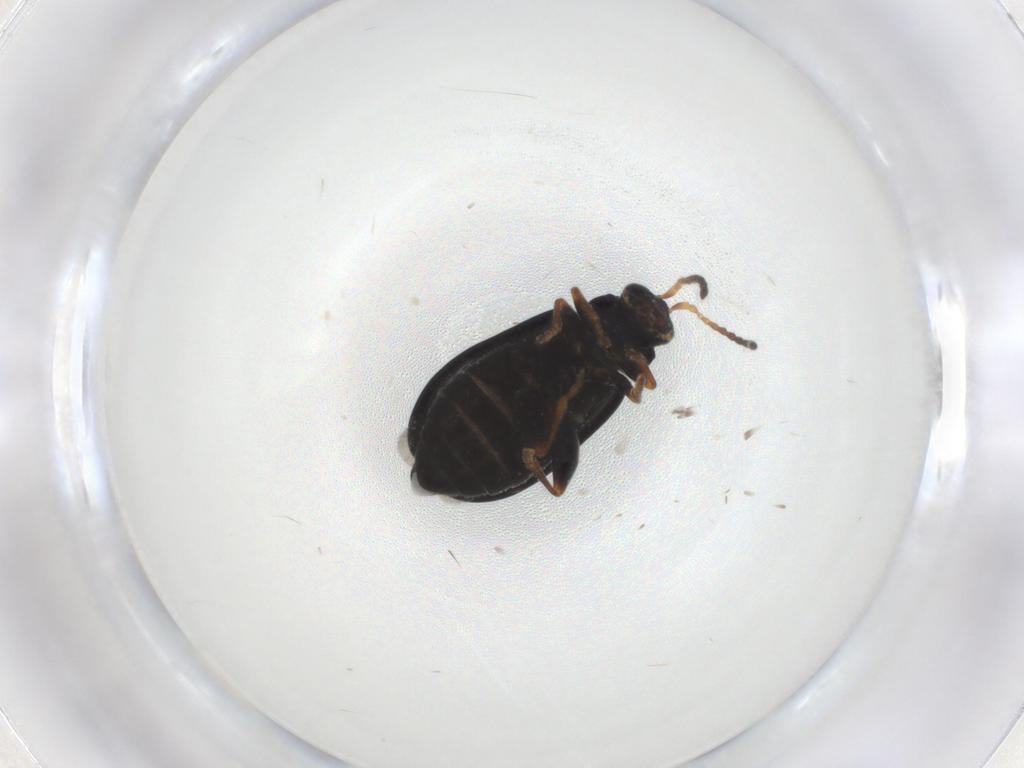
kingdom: Animalia
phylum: Arthropoda
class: Insecta
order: Coleoptera
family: Chrysomelidae
